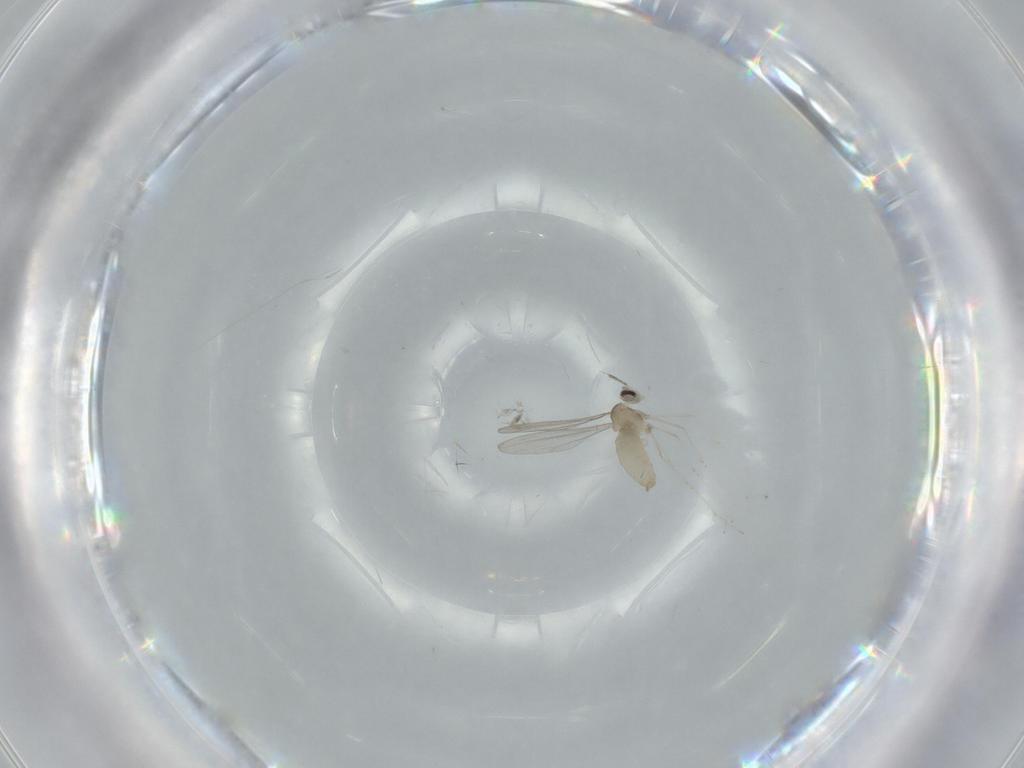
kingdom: Animalia
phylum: Arthropoda
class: Insecta
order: Diptera
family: Cecidomyiidae
